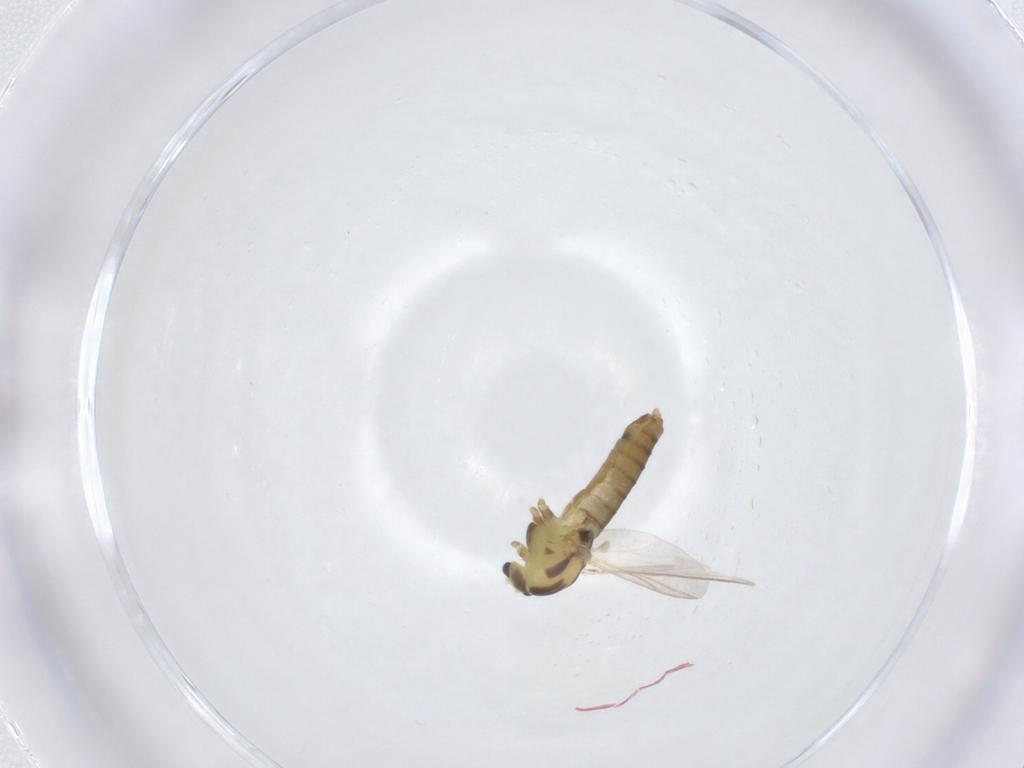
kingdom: Animalia
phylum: Arthropoda
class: Insecta
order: Diptera
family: Chironomidae
